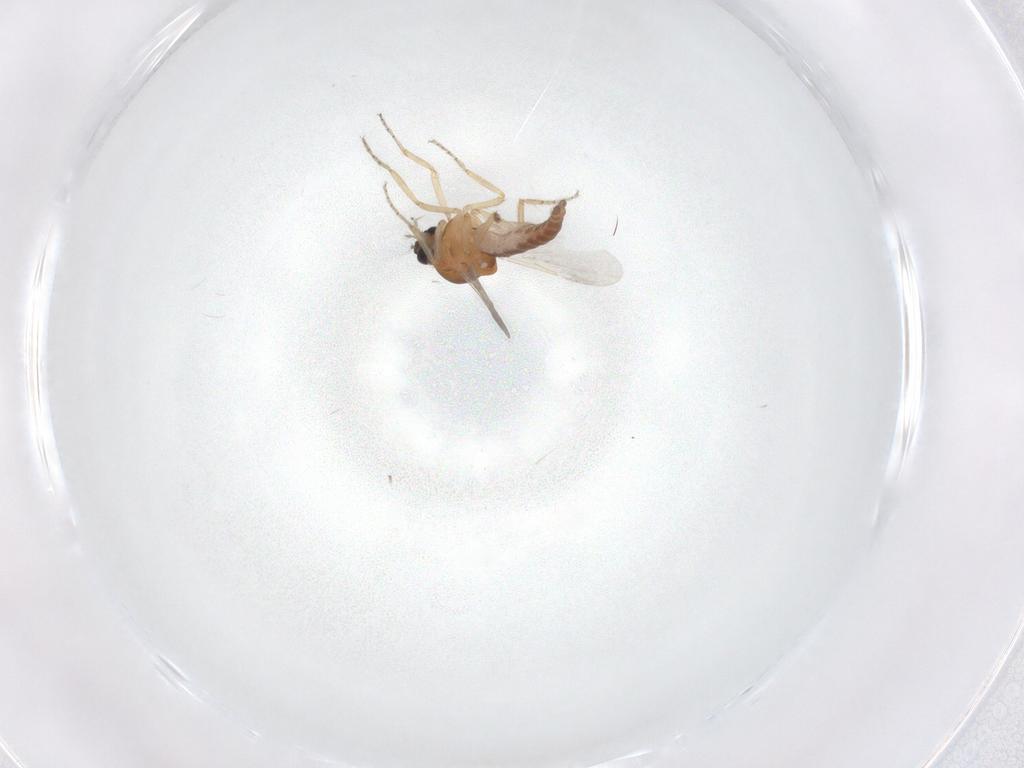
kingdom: Animalia
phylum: Arthropoda
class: Insecta
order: Diptera
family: Ceratopogonidae
